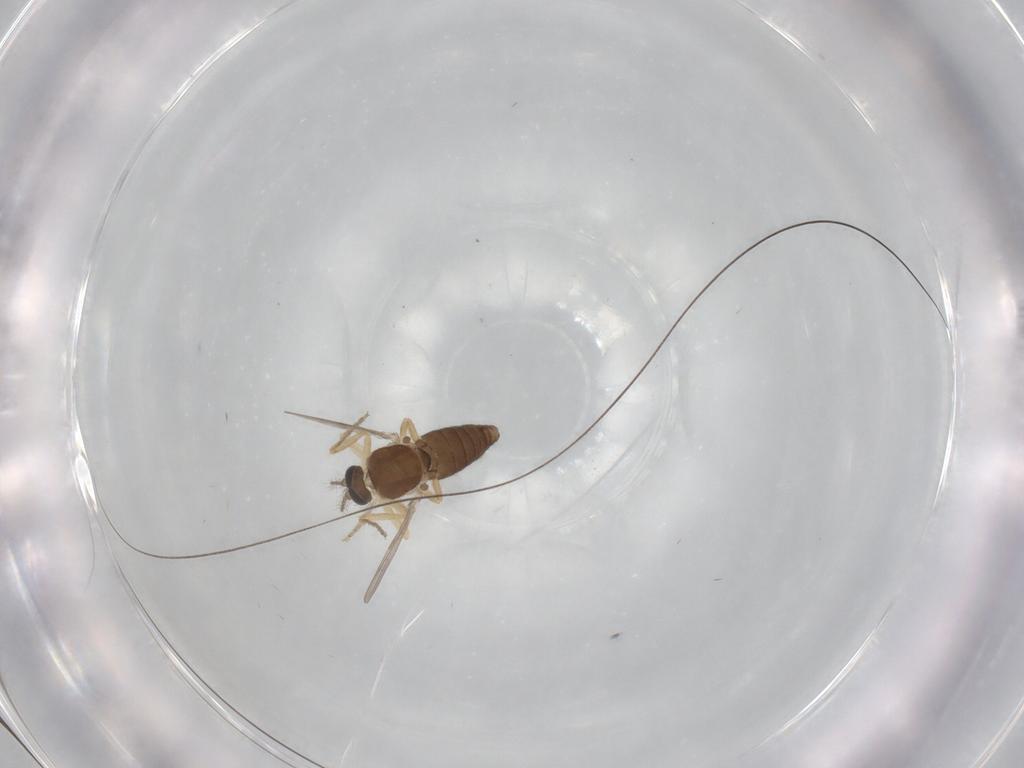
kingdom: Animalia
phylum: Arthropoda
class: Insecta
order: Diptera
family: Ceratopogonidae
